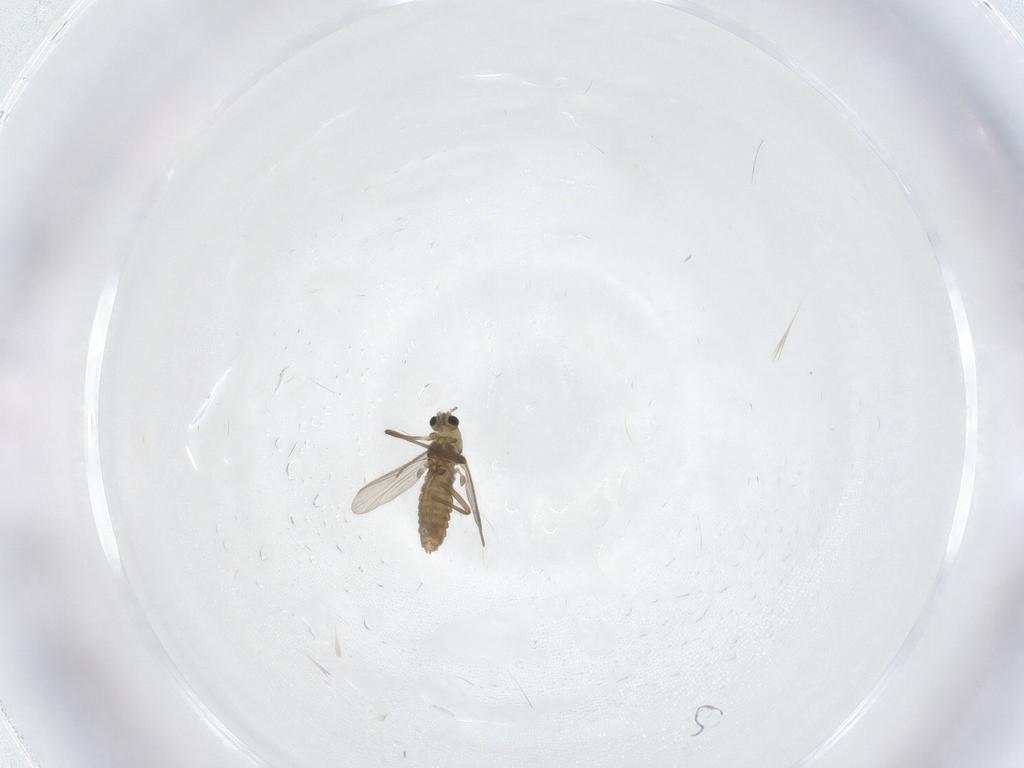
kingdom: Animalia
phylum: Arthropoda
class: Insecta
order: Diptera
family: Chironomidae
